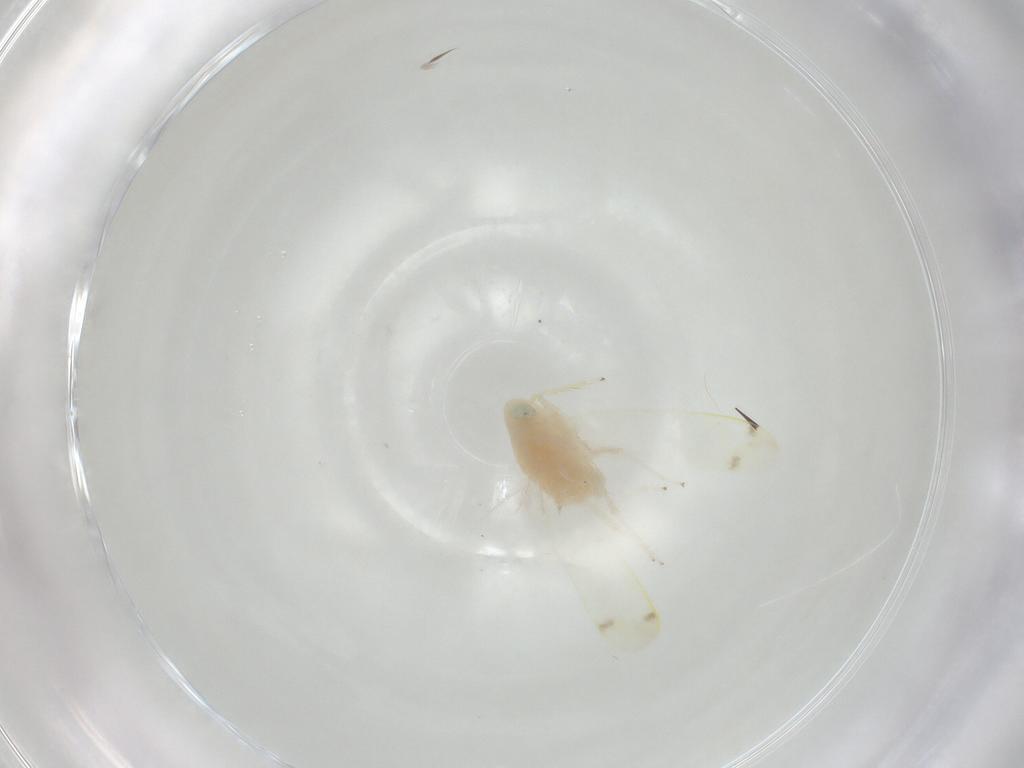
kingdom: Animalia
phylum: Arthropoda
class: Insecta
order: Hemiptera
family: Cicadellidae
